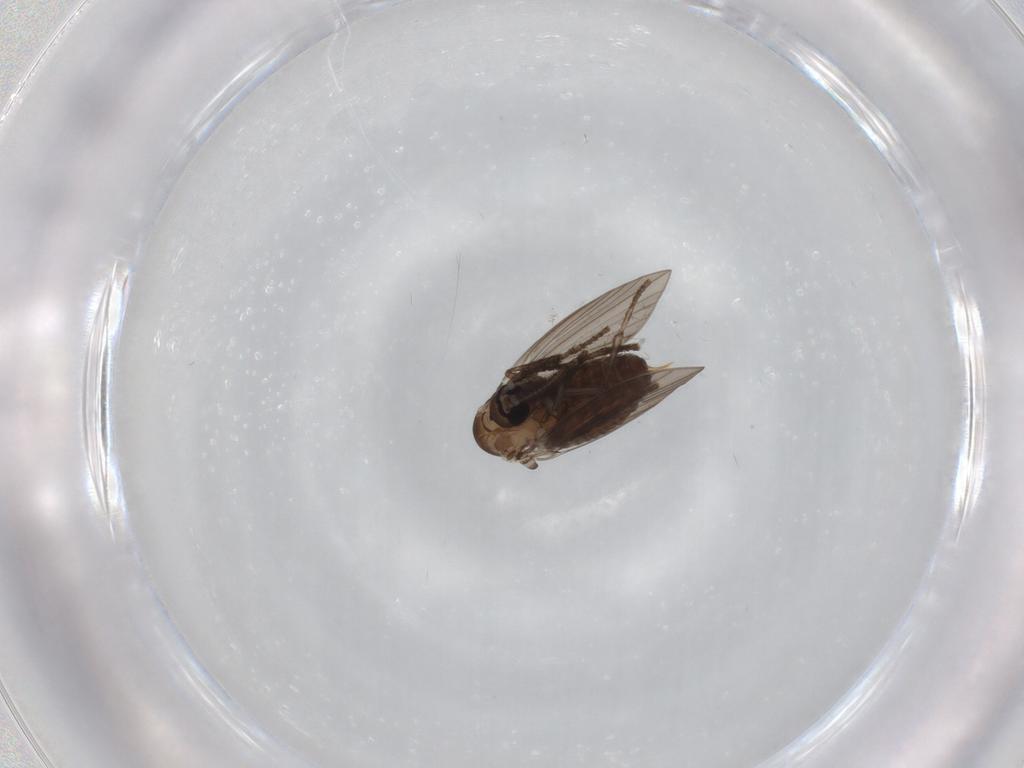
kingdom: Animalia
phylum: Arthropoda
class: Insecta
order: Diptera
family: Psychodidae
